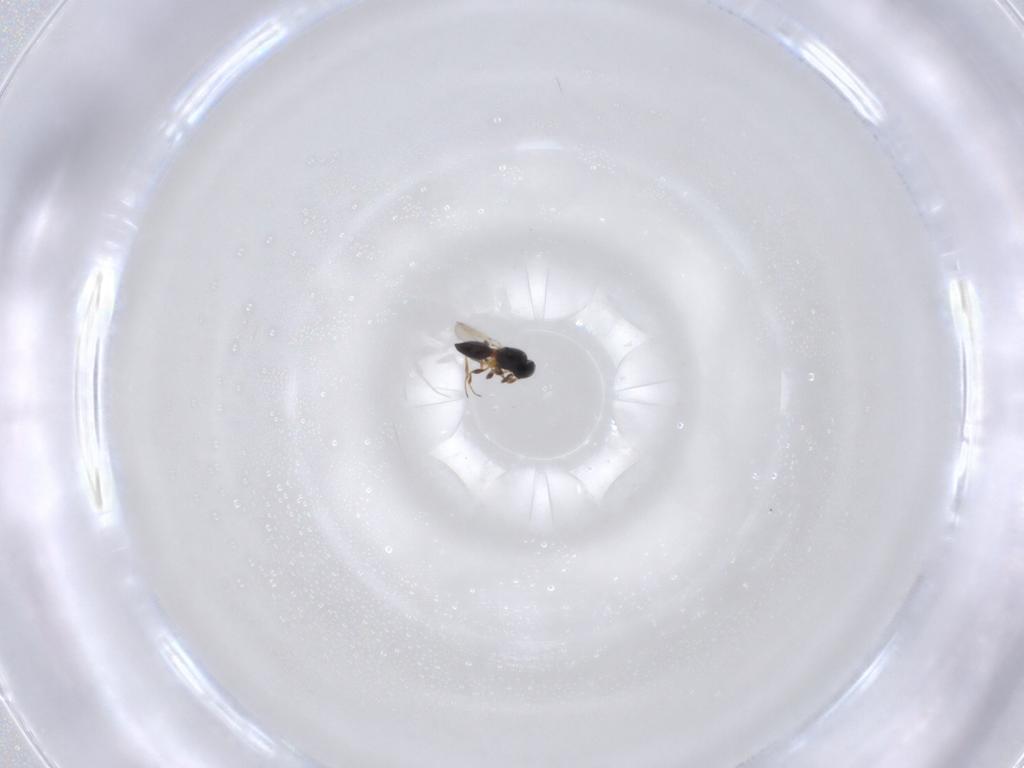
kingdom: Animalia
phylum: Arthropoda
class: Insecta
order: Hymenoptera
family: Platygastridae
